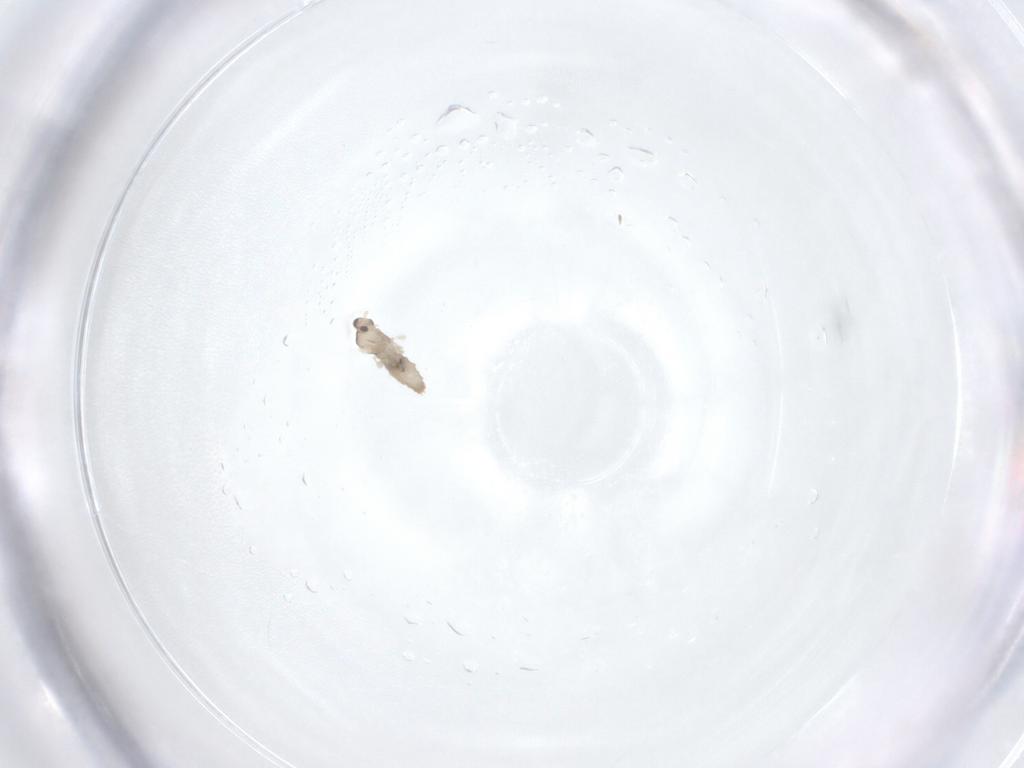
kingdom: Animalia
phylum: Arthropoda
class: Insecta
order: Diptera
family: Cecidomyiidae
